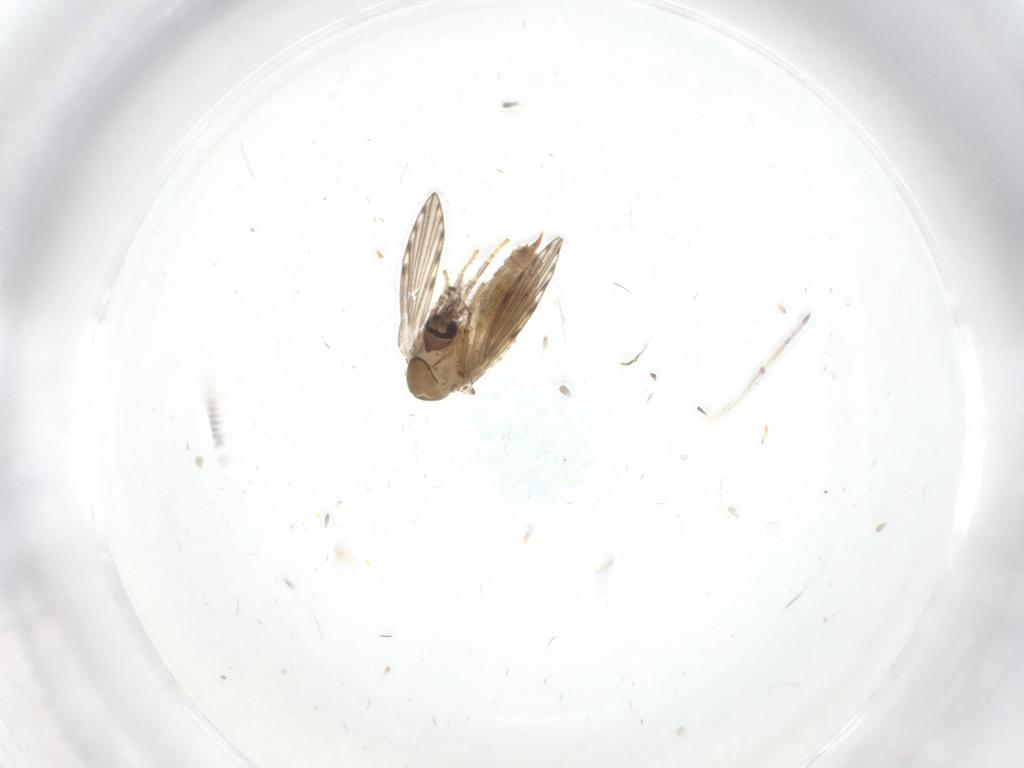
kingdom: Animalia
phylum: Arthropoda
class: Insecta
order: Diptera
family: Psychodidae
